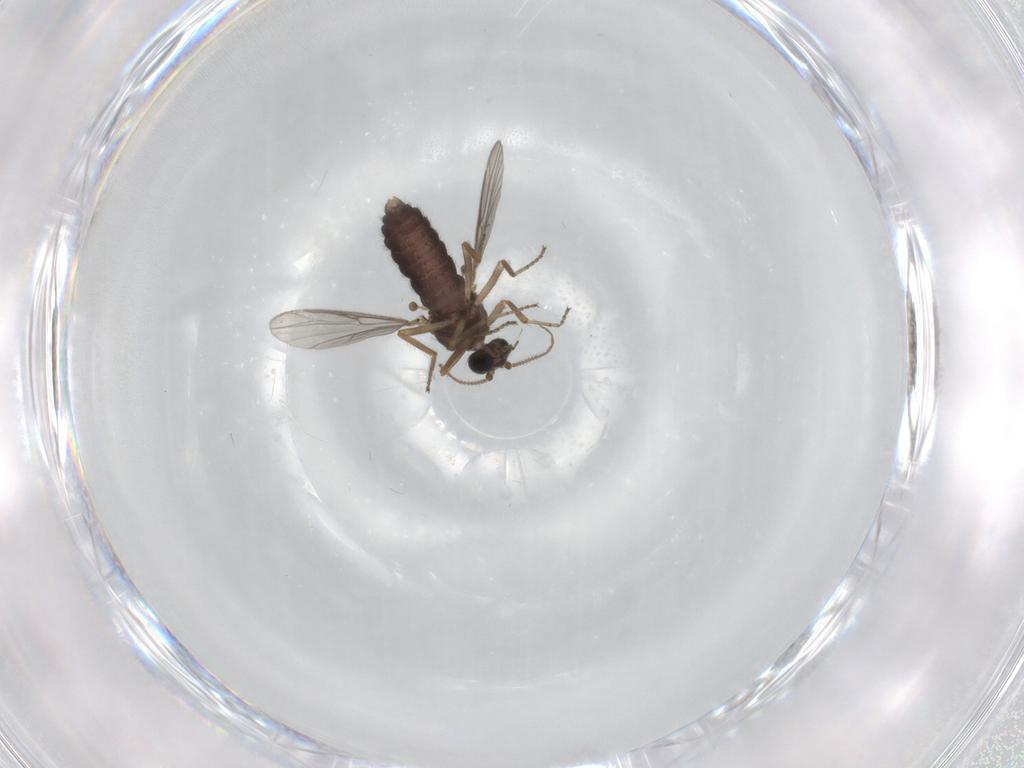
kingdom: Animalia
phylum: Arthropoda
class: Insecta
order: Diptera
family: Ceratopogonidae
